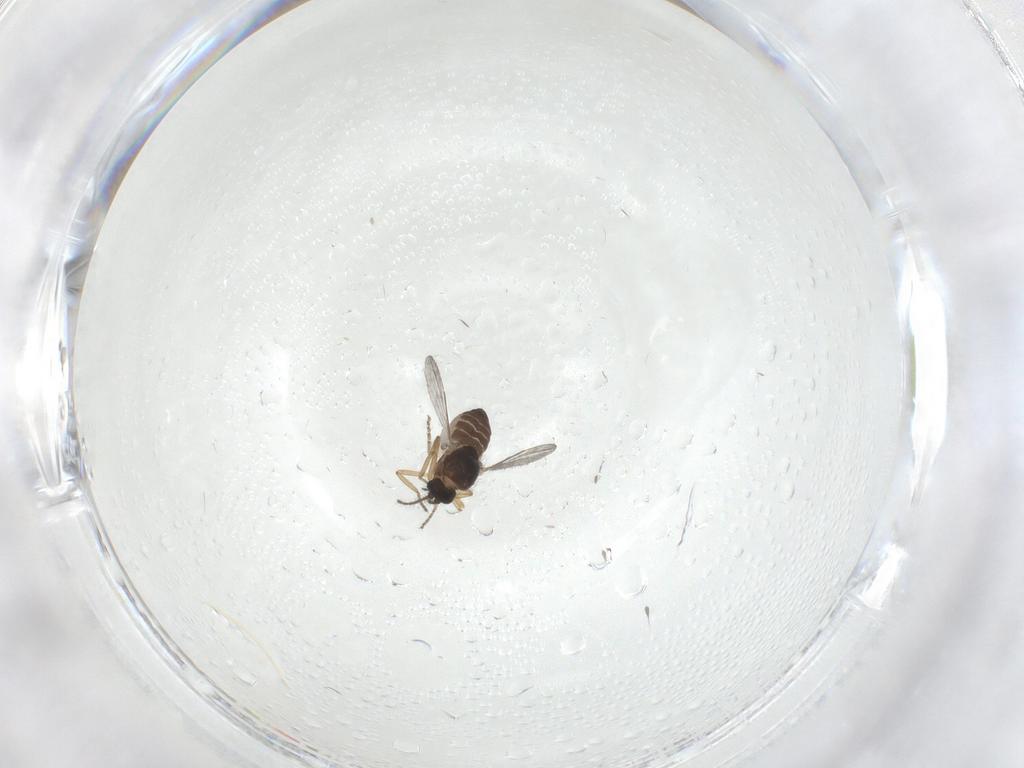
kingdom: Animalia
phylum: Arthropoda
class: Insecta
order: Diptera
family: Ceratopogonidae
